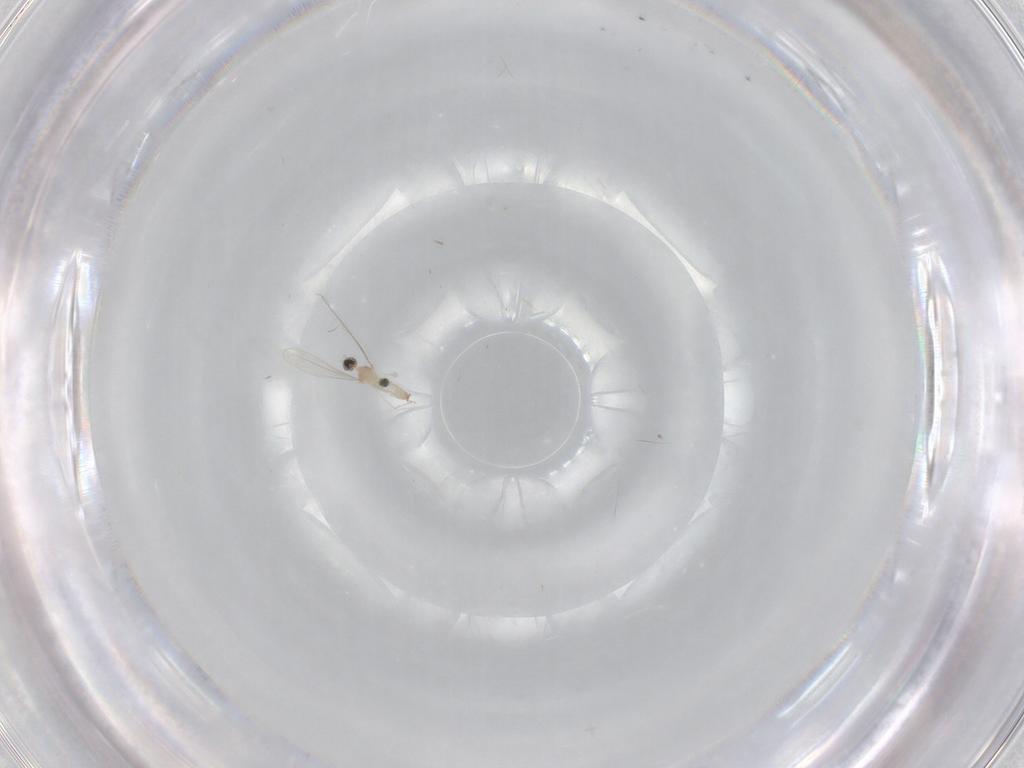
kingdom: Animalia
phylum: Arthropoda
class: Insecta
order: Diptera
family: Cecidomyiidae
